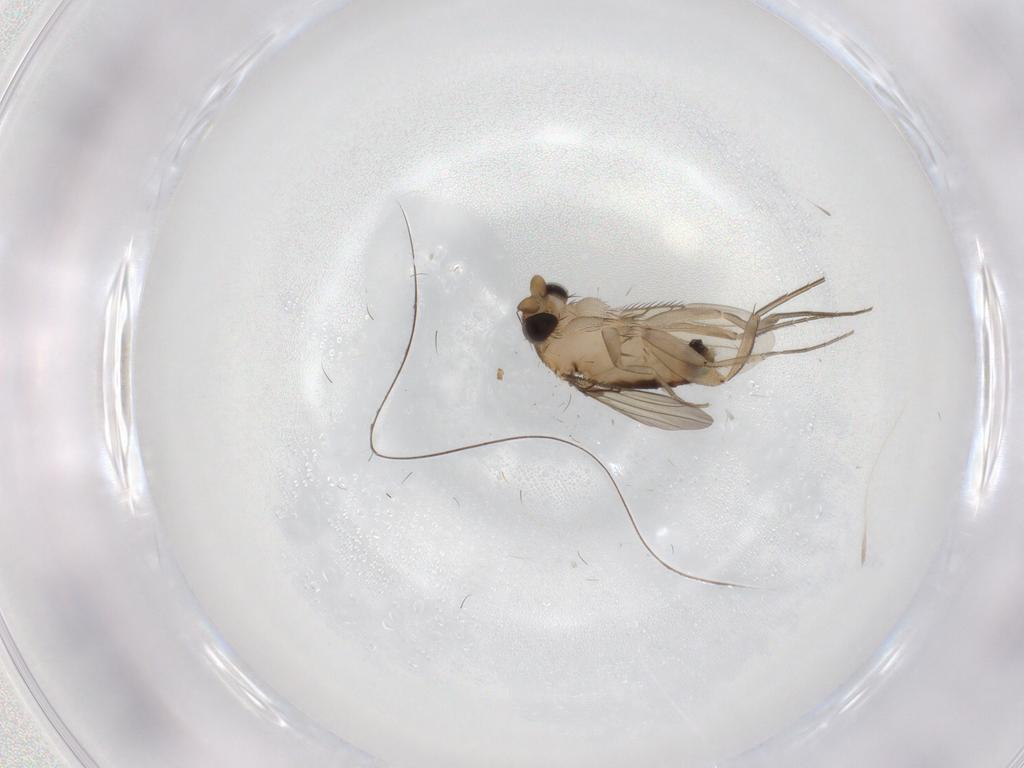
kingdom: Animalia
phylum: Arthropoda
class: Insecta
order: Diptera
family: Phoridae
